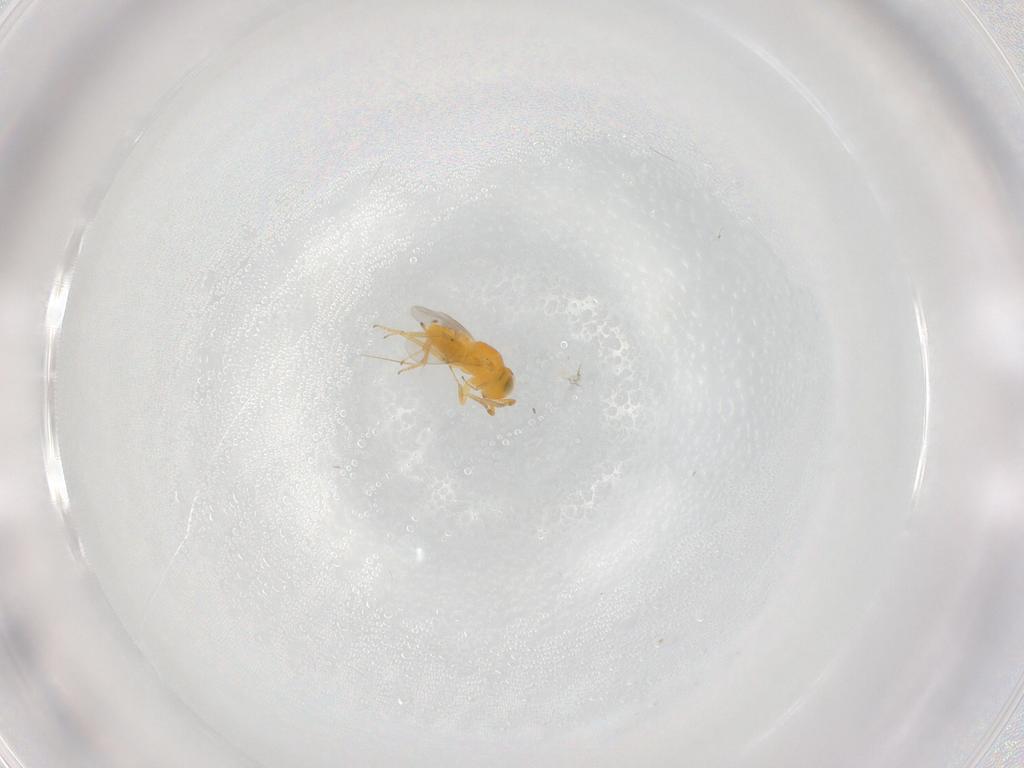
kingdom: Animalia
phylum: Arthropoda
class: Insecta
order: Hymenoptera
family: Encyrtidae
